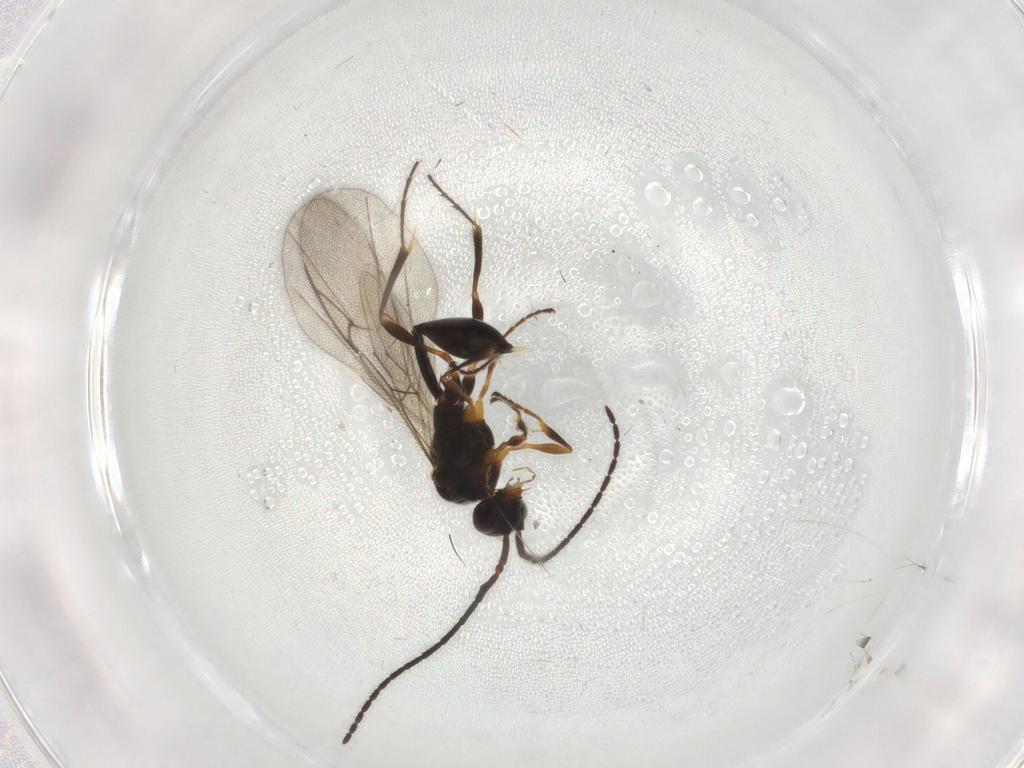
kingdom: Animalia
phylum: Arthropoda
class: Insecta
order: Hymenoptera
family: Diapriidae
